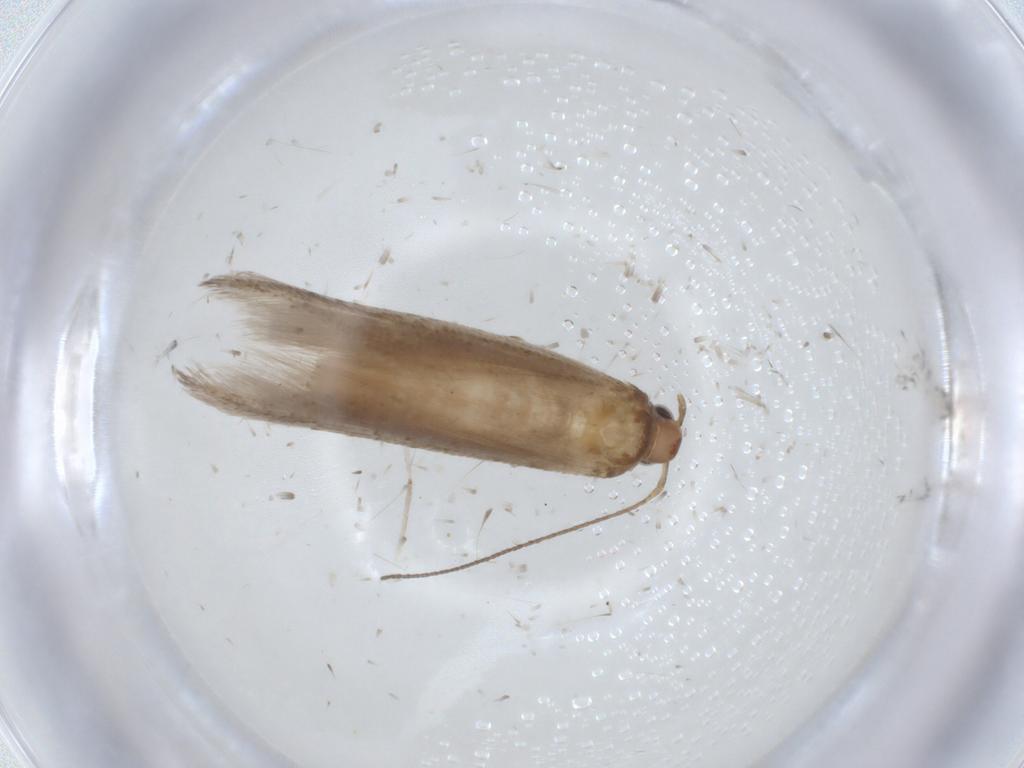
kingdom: Animalia
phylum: Arthropoda
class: Insecta
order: Lepidoptera
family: Gelechiidae
